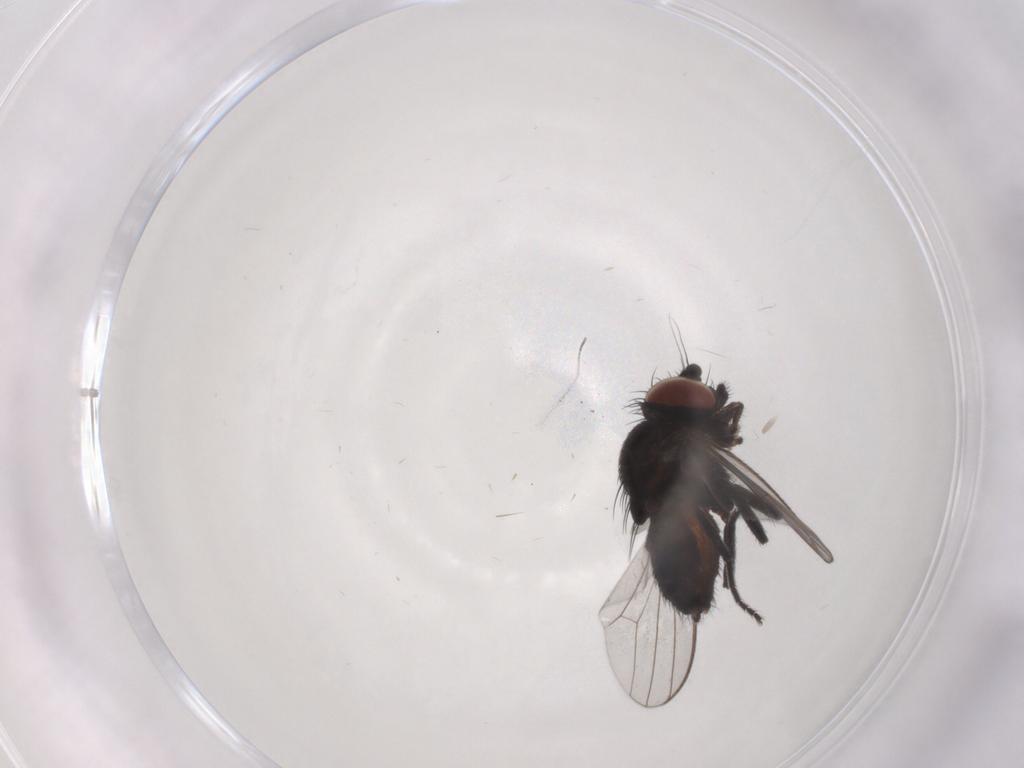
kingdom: Animalia
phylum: Arthropoda
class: Insecta
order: Diptera
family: Milichiidae
